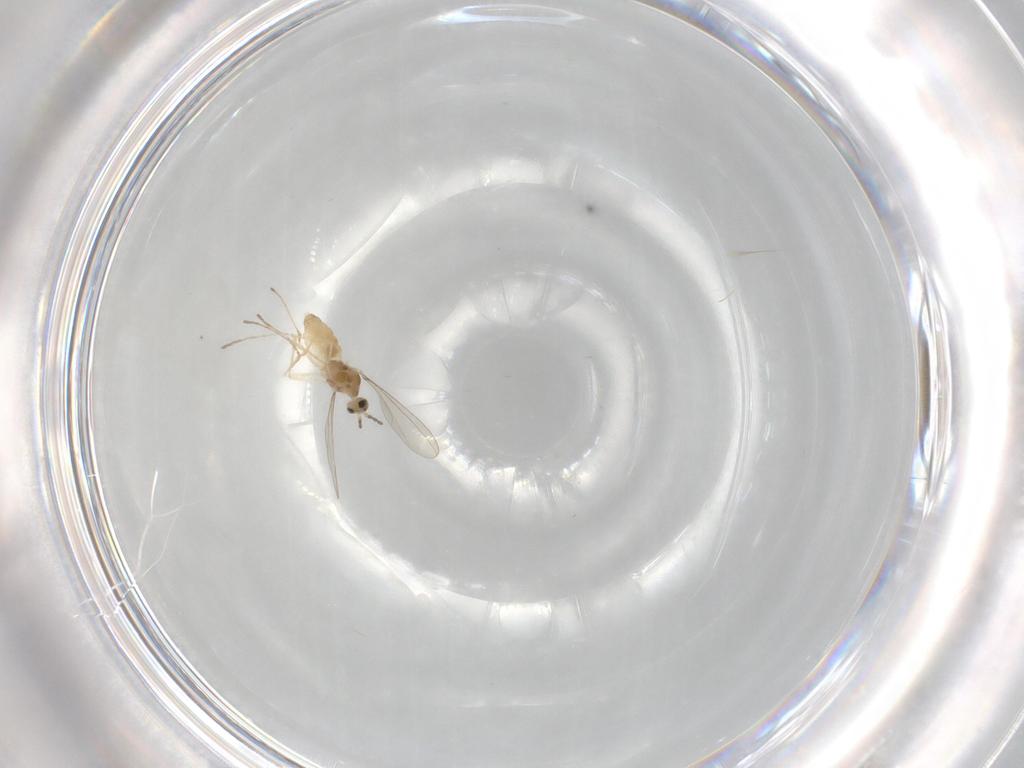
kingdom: Animalia
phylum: Arthropoda
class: Insecta
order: Diptera
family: Cecidomyiidae
